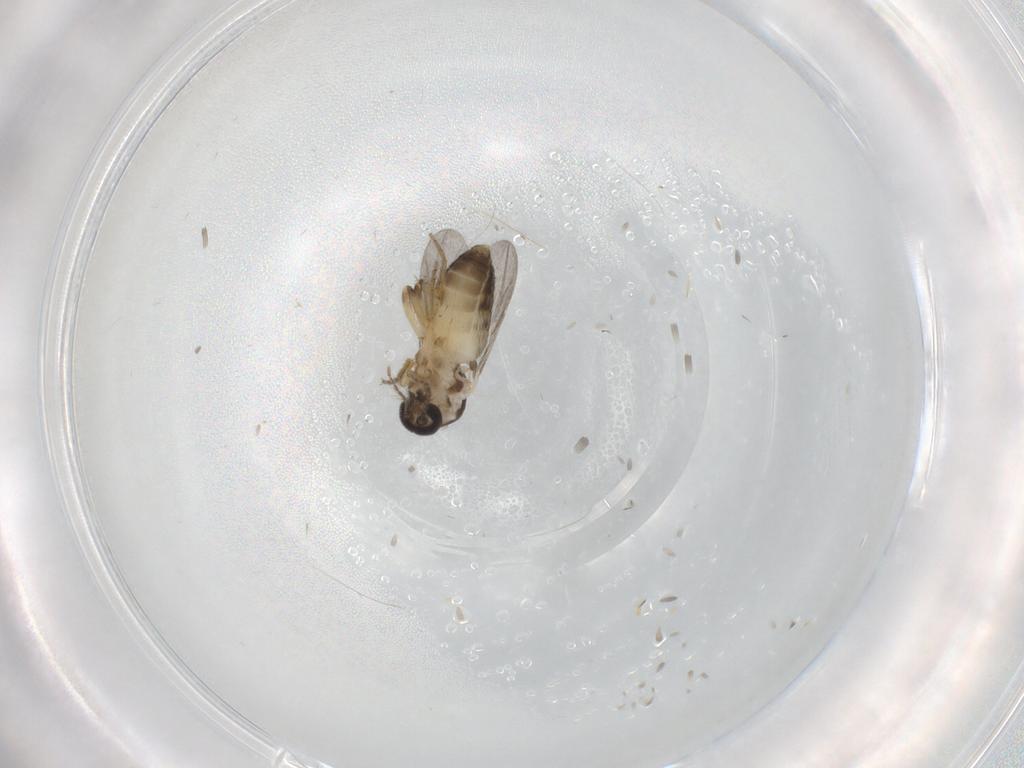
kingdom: Animalia
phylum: Arthropoda
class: Insecta
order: Diptera
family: Ceratopogonidae
